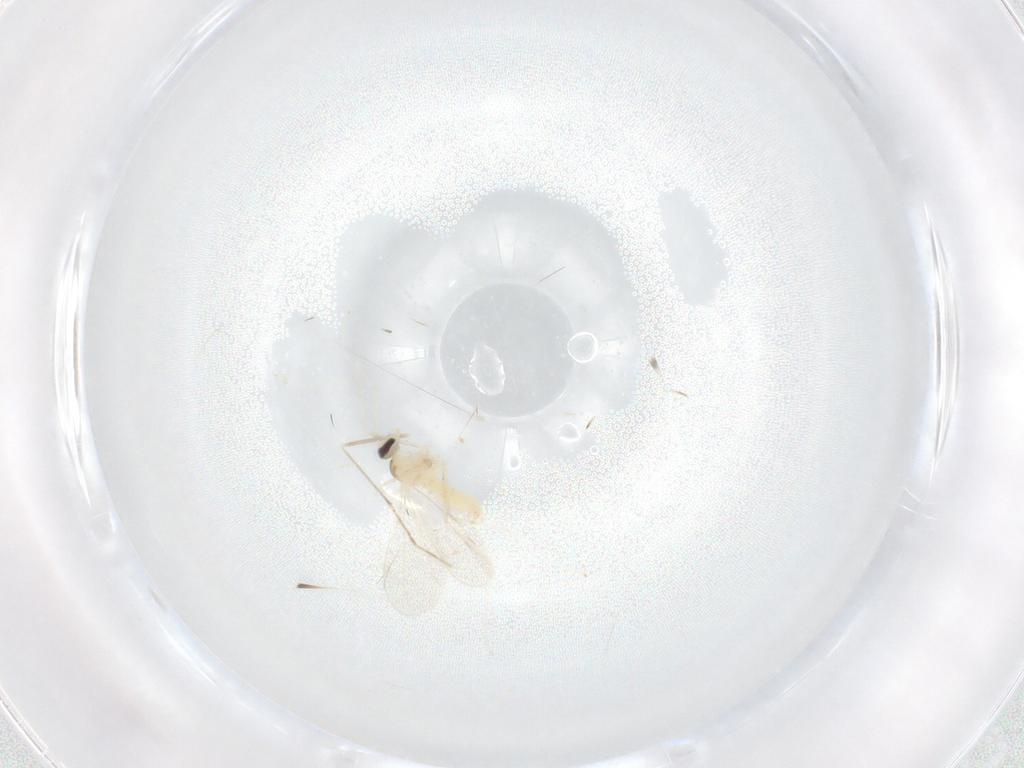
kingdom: Animalia
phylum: Arthropoda
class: Insecta
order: Diptera
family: Cecidomyiidae
